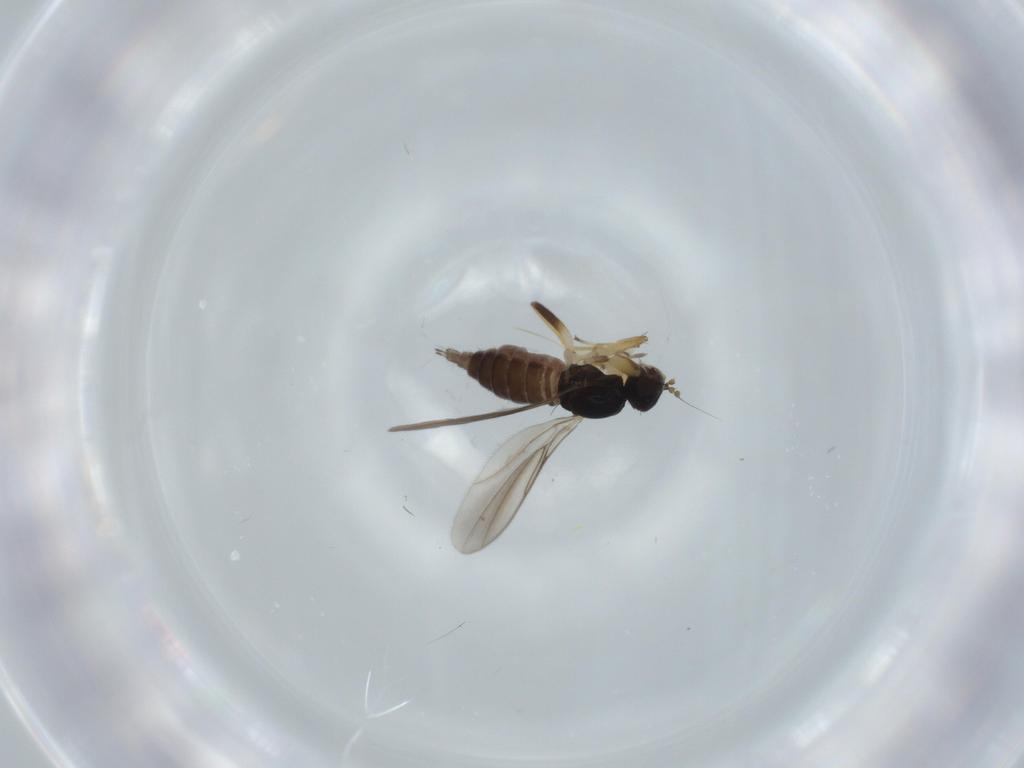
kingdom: Animalia
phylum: Arthropoda
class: Insecta
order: Diptera
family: Hybotidae
